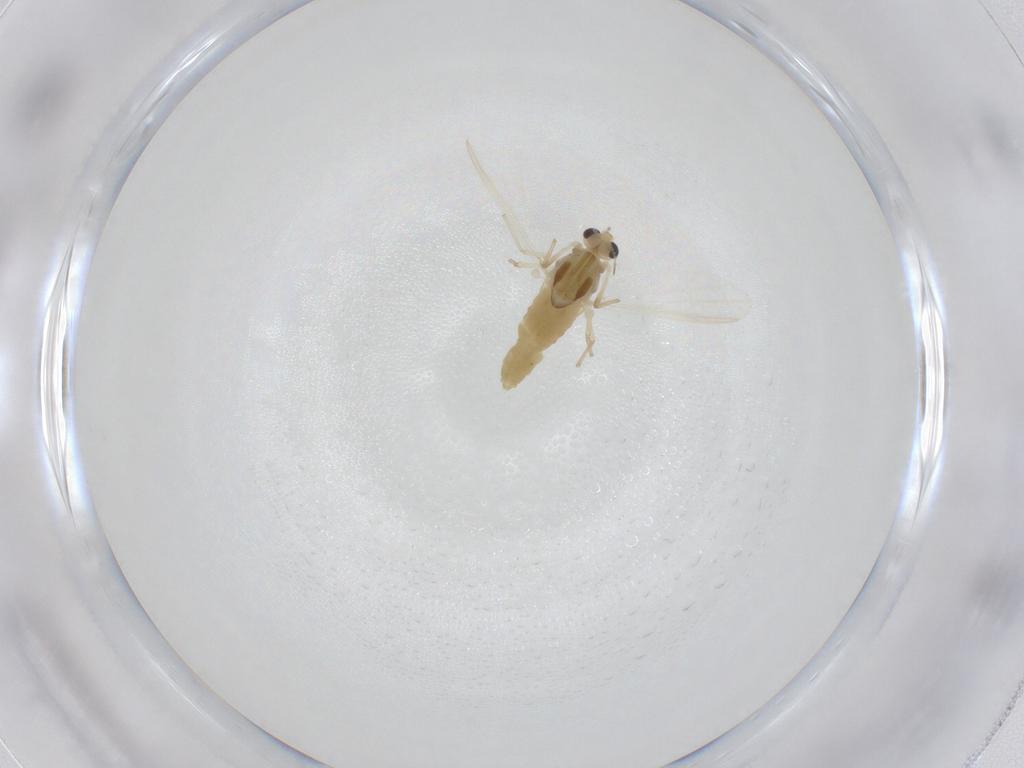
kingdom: Animalia
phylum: Arthropoda
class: Insecta
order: Diptera
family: Chironomidae
